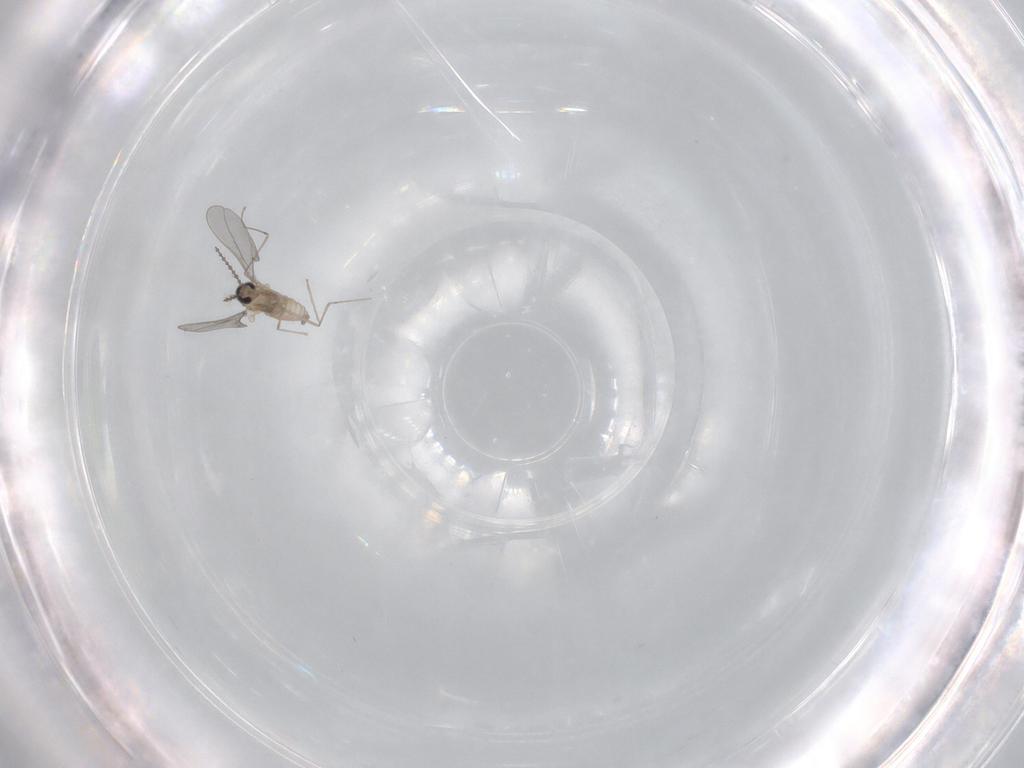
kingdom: Animalia
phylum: Arthropoda
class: Insecta
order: Diptera
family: Cecidomyiidae
